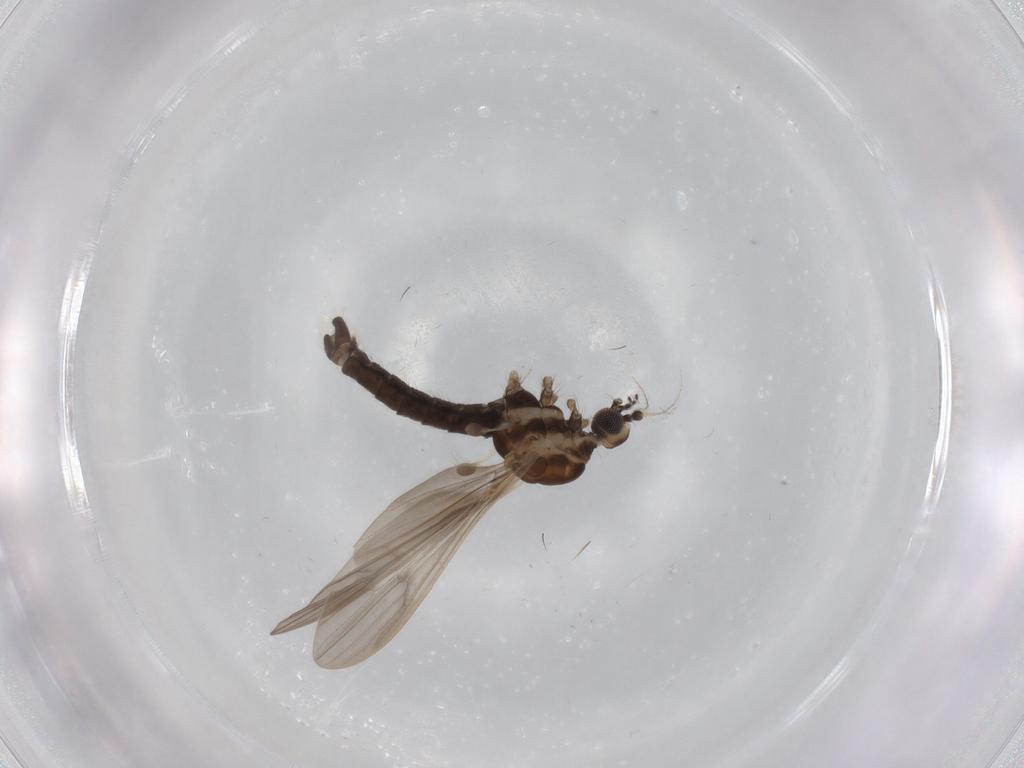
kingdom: Animalia
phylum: Arthropoda
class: Insecta
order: Diptera
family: Drosophilidae
